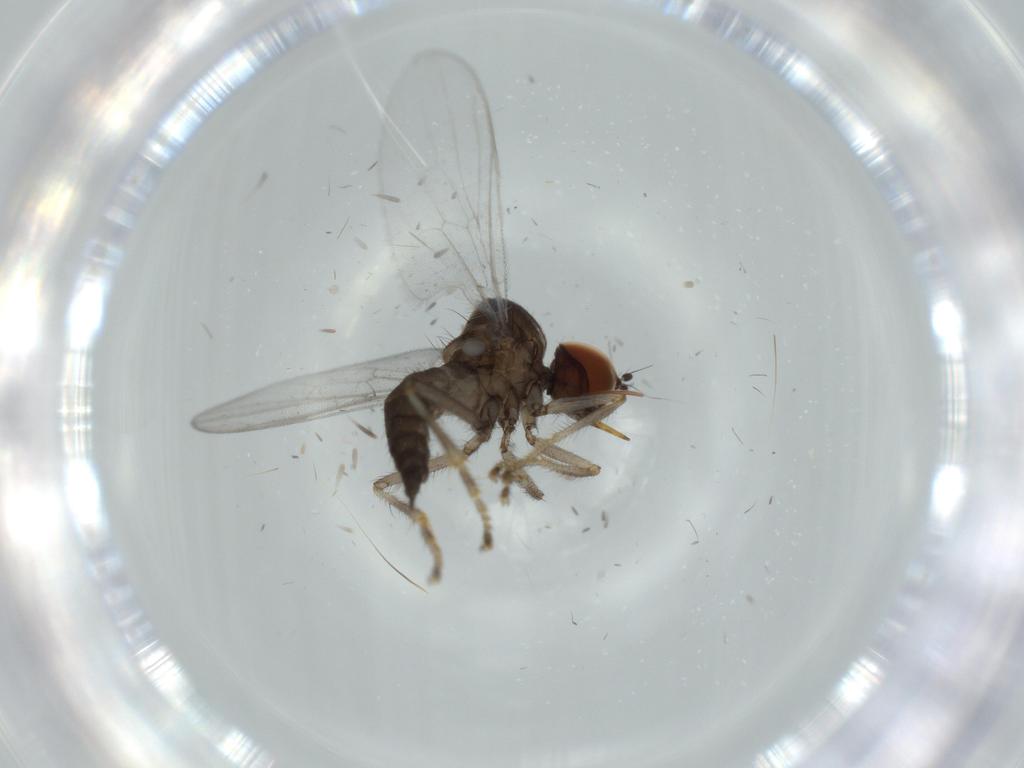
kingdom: Animalia
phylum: Arthropoda
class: Insecta
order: Diptera
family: Hybotidae
